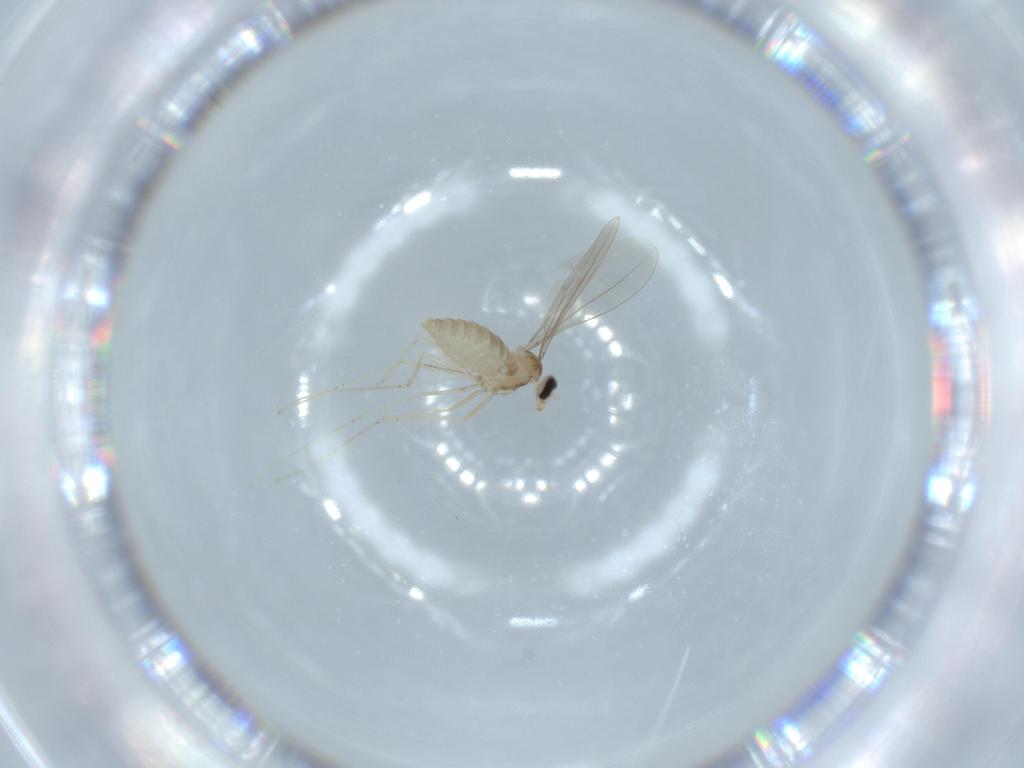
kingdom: Animalia
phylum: Arthropoda
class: Insecta
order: Diptera
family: Cecidomyiidae
